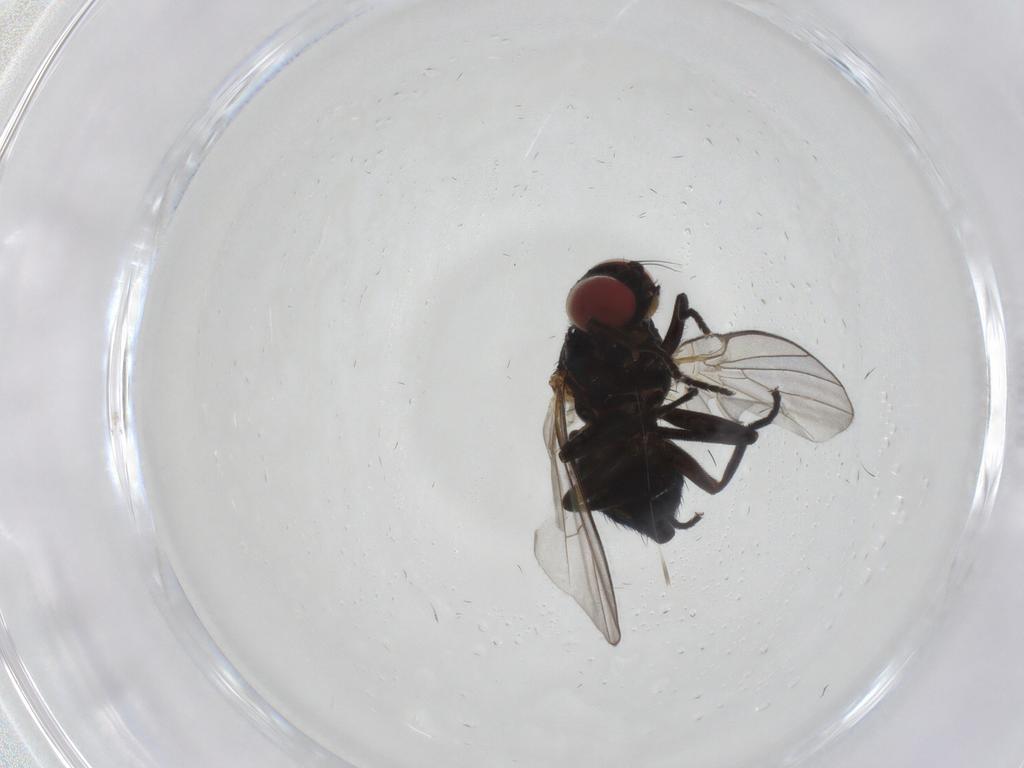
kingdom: Animalia
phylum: Arthropoda
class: Insecta
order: Diptera
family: Agromyzidae
